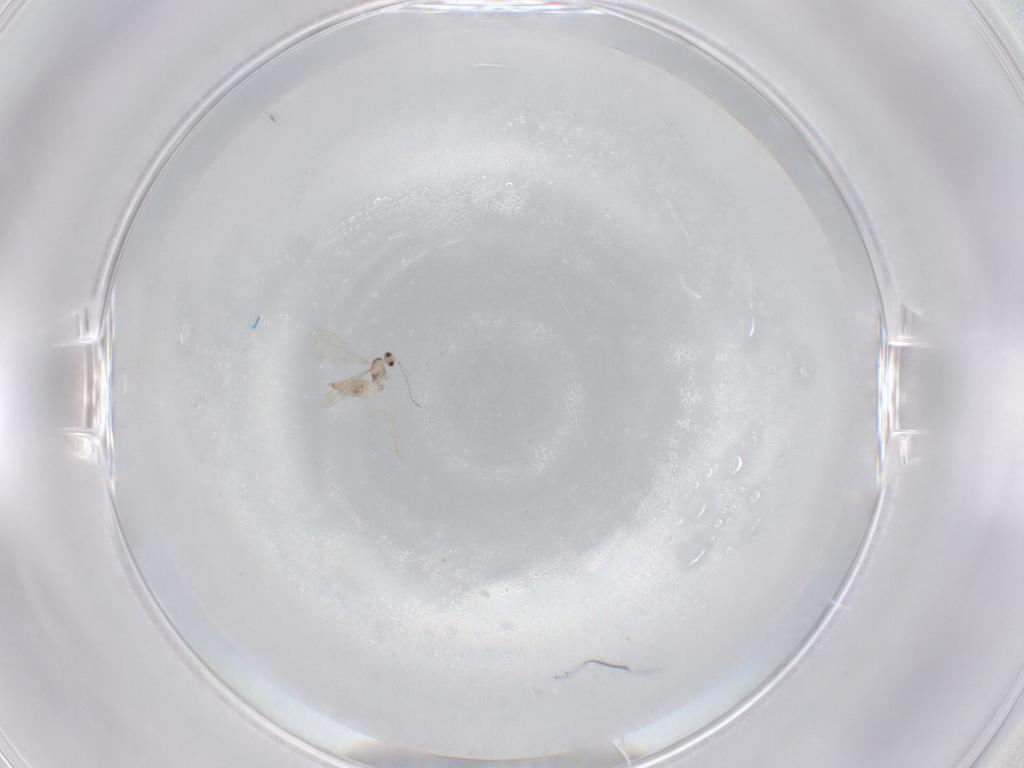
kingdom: Animalia
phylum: Arthropoda
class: Insecta
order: Diptera
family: Cecidomyiidae
